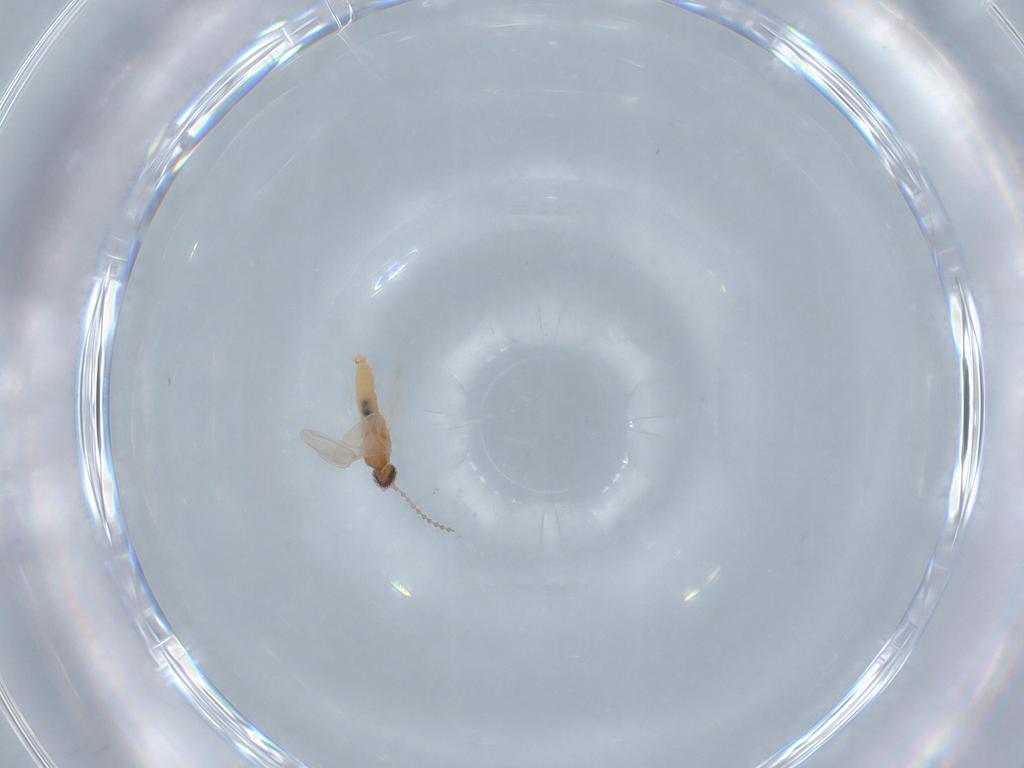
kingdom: Animalia
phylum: Arthropoda
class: Insecta
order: Diptera
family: Cecidomyiidae
